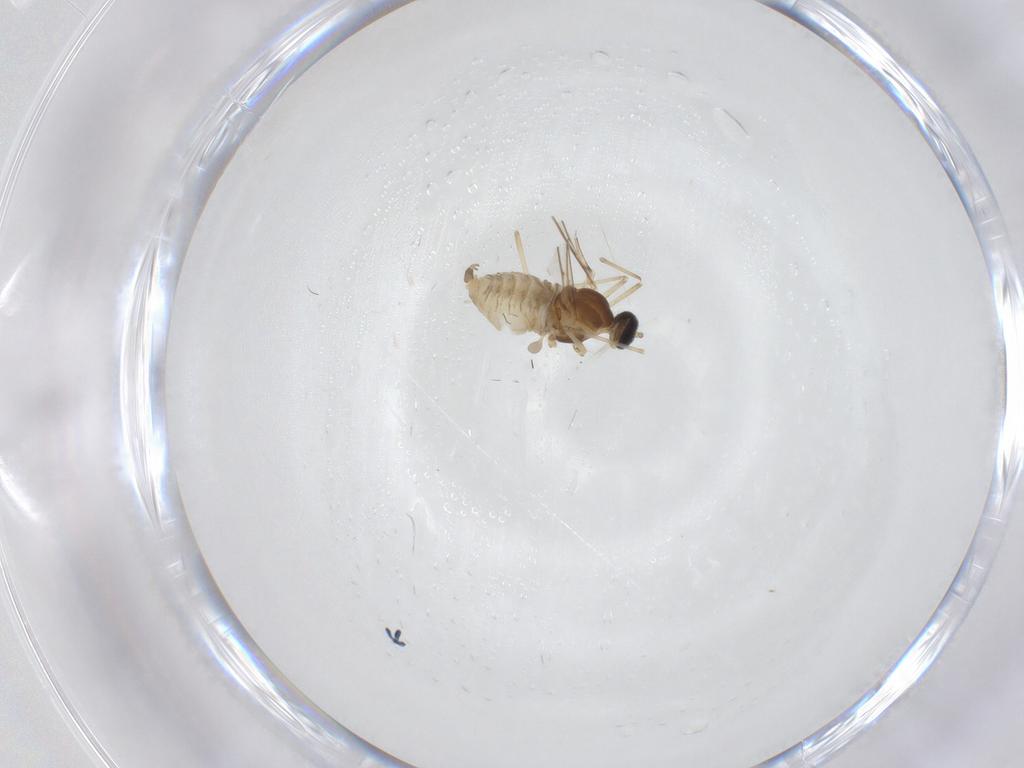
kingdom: Animalia
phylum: Arthropoda
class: Insecta
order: Diptera
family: Cecidomyiidae
